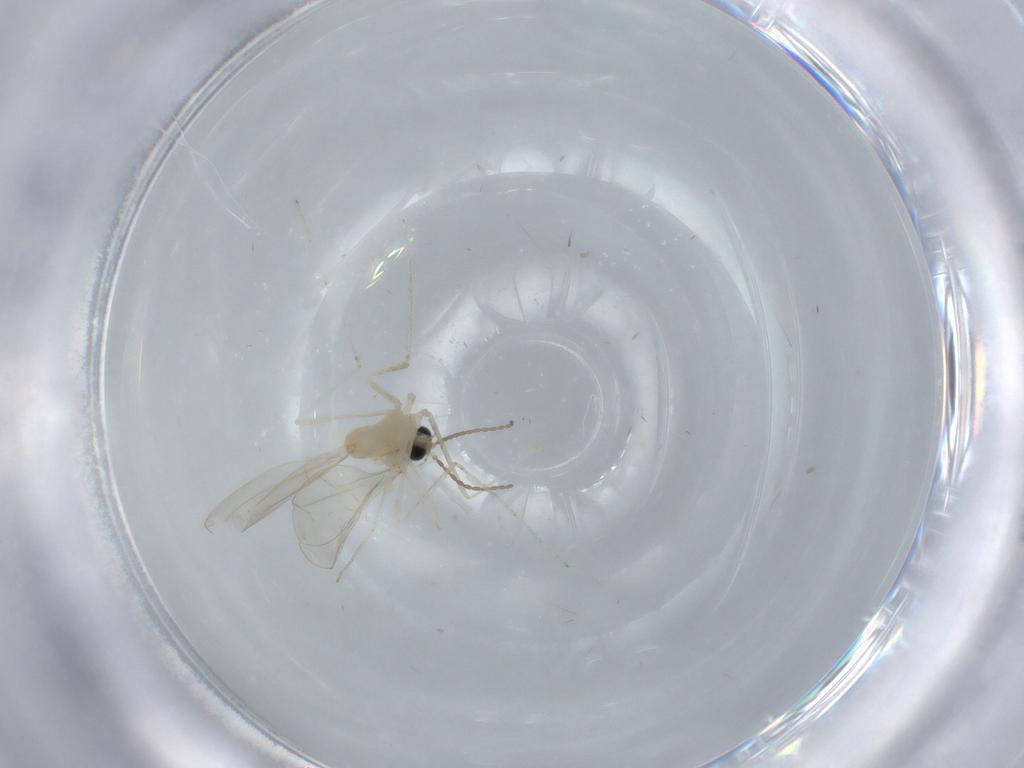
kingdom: Animalia
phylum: Arthropoda
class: Insecta
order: Diptera
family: Cecidomyiidae
